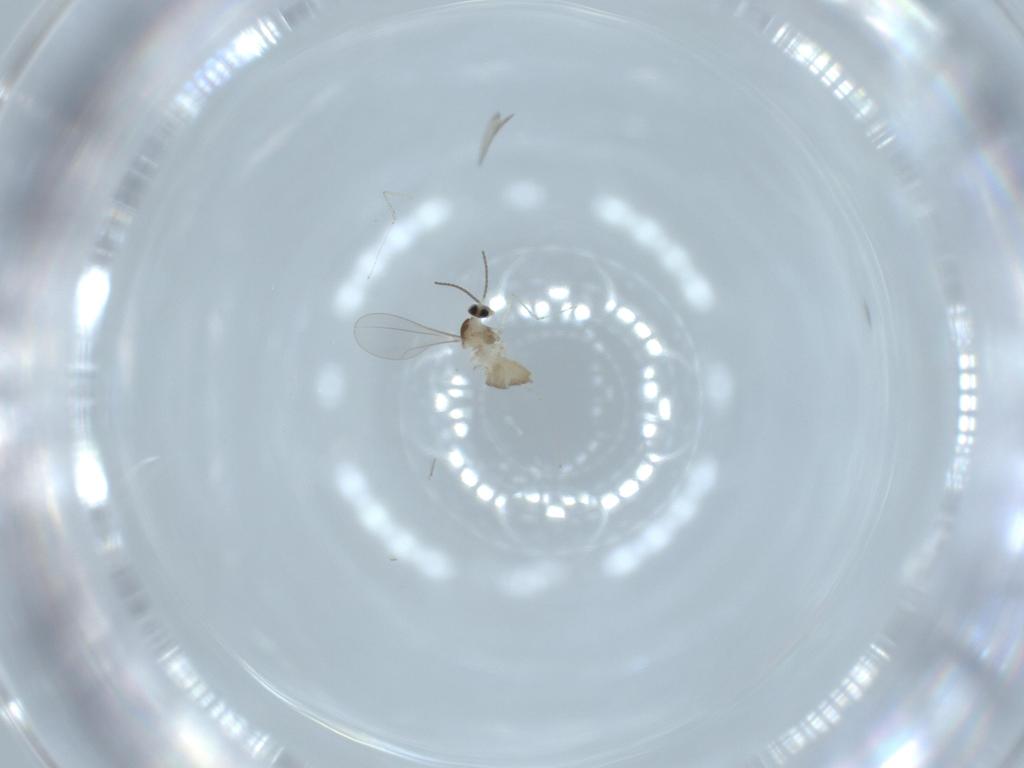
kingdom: Animalia
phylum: Arthropoda
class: Insecta
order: Diptera
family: Cecidomyiidae
